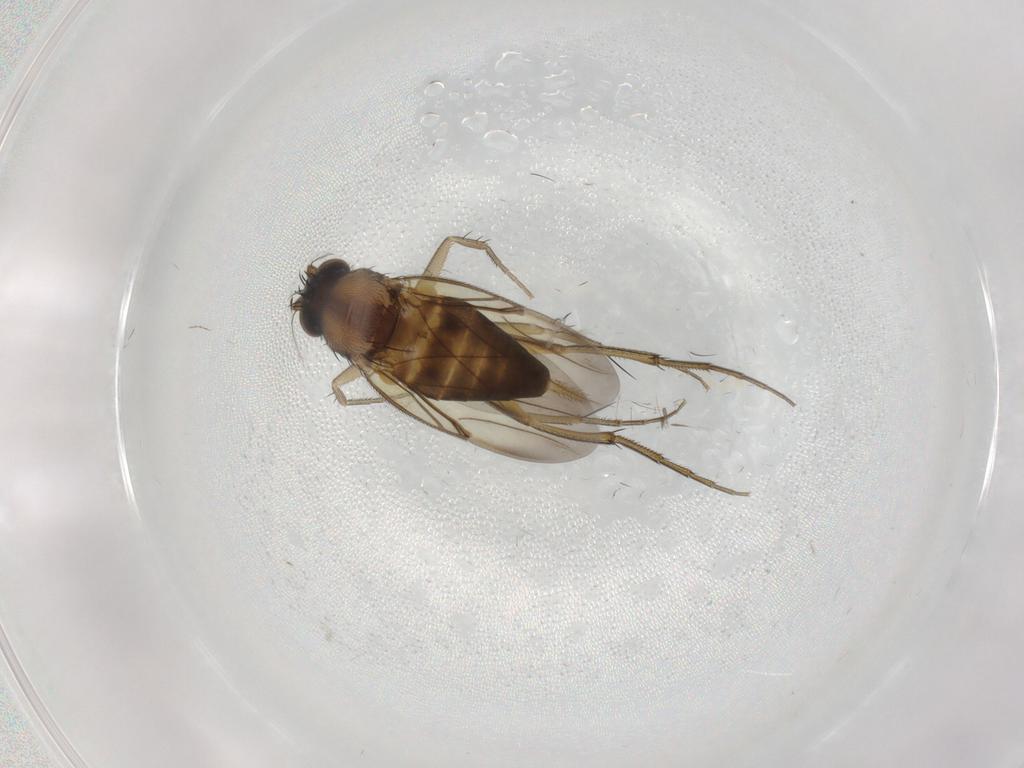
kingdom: Animalia
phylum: Arthropoda
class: Insecta
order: Diptera
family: Phoridae
